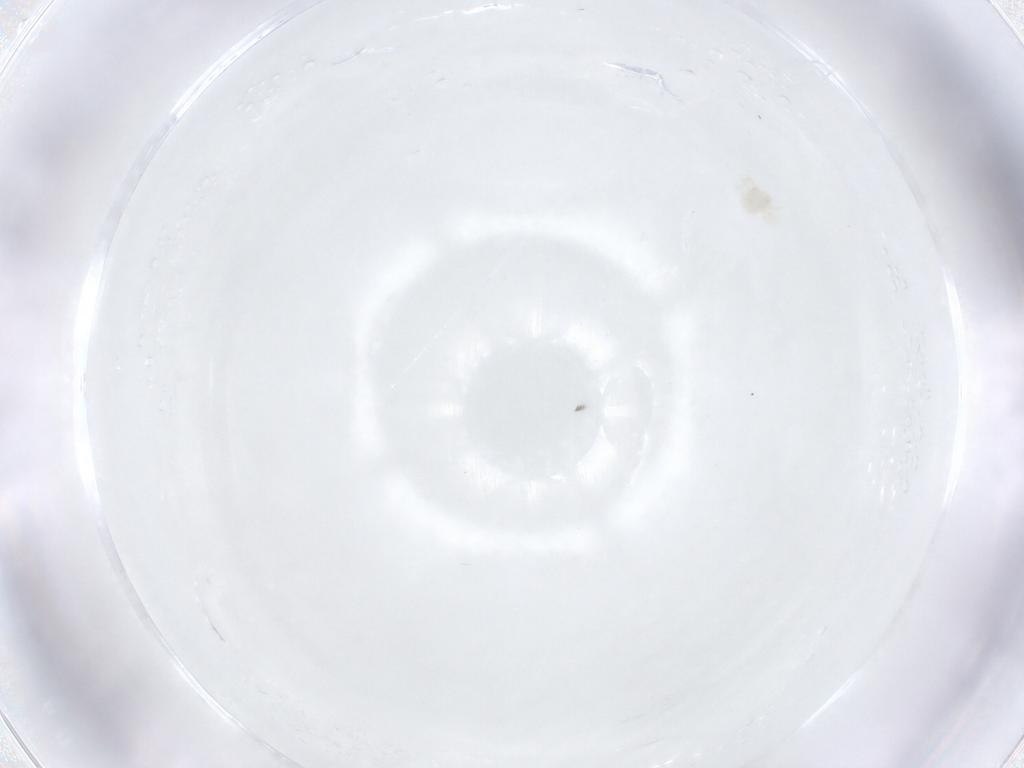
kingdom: Animalia
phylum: Arthropoda
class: Arachnida
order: Trombidiformes
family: Anystidae
